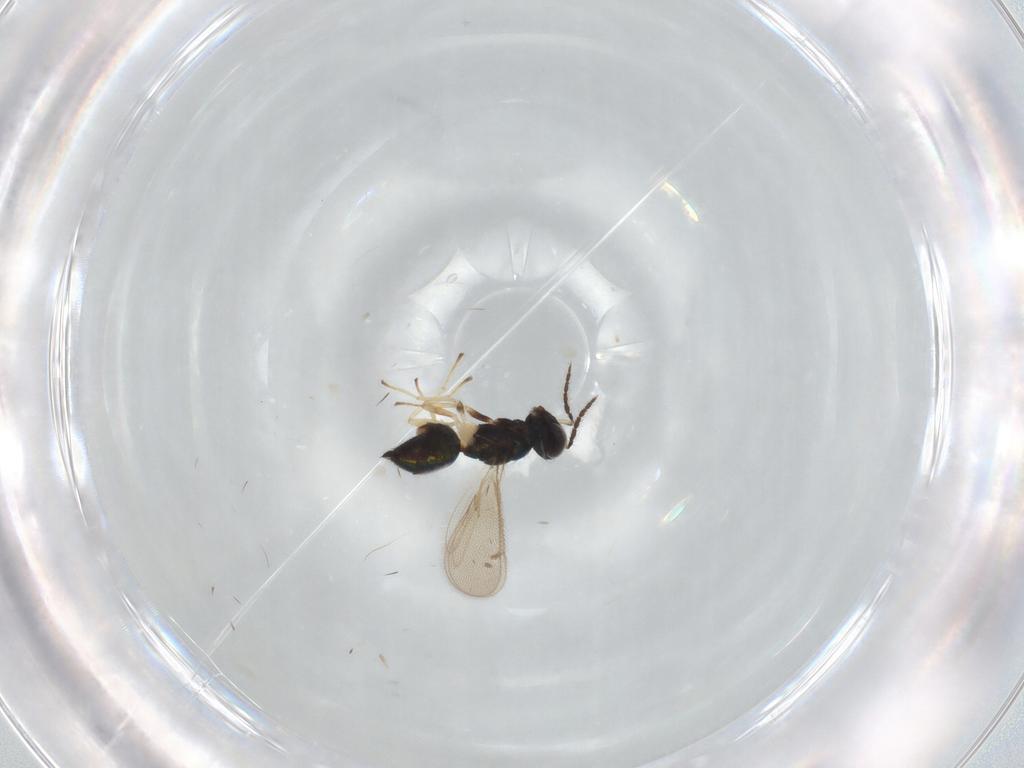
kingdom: Animalia
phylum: Arthropoda
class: Insecta
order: Hymenoptera
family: Eulophidae
